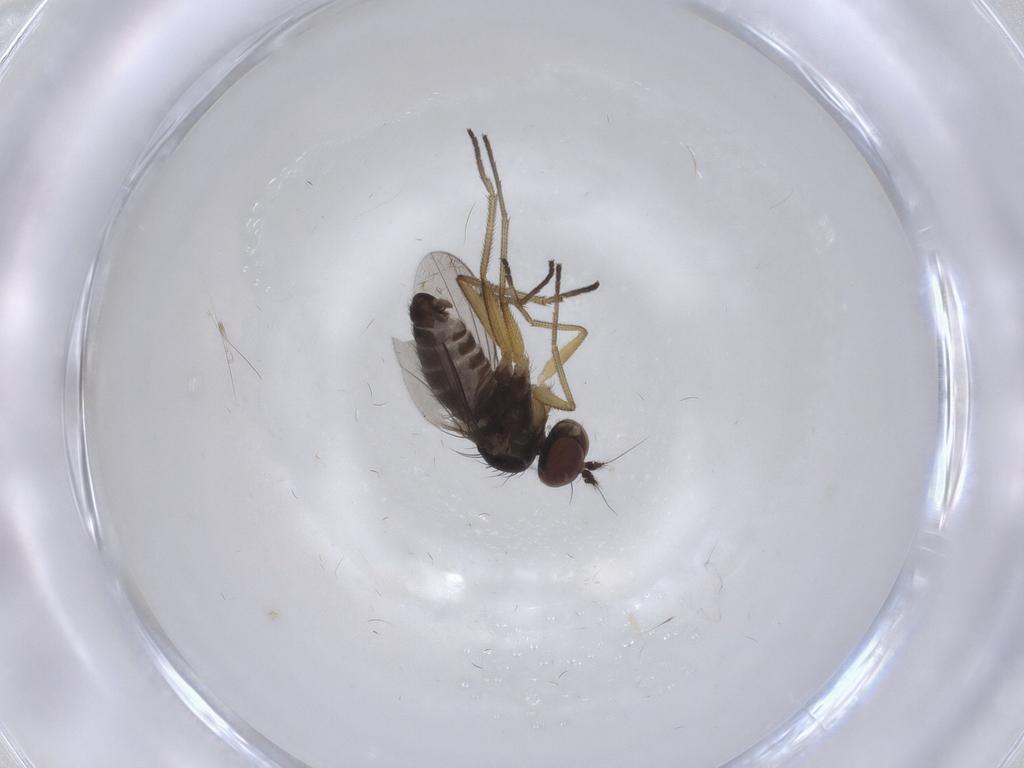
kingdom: Animalia
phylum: Arthropoda
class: Insecta
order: Diptera
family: Dolichopodidae
